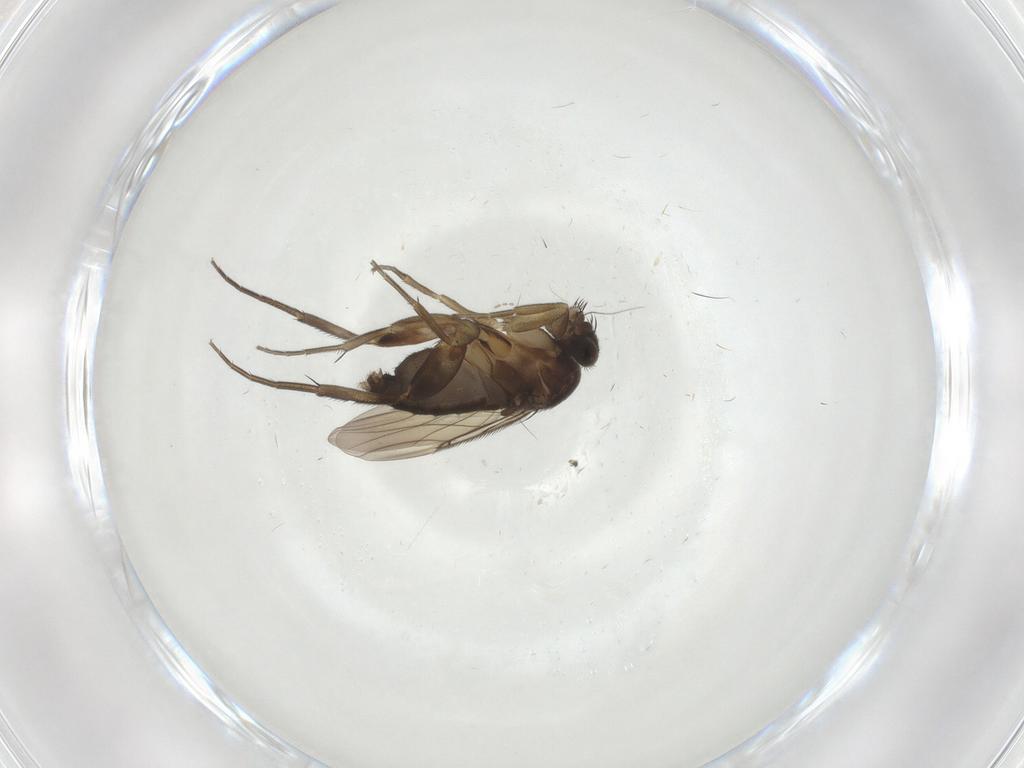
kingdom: Animalia
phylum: Arthropoda
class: Insecta
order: Diptera
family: Phoridae
